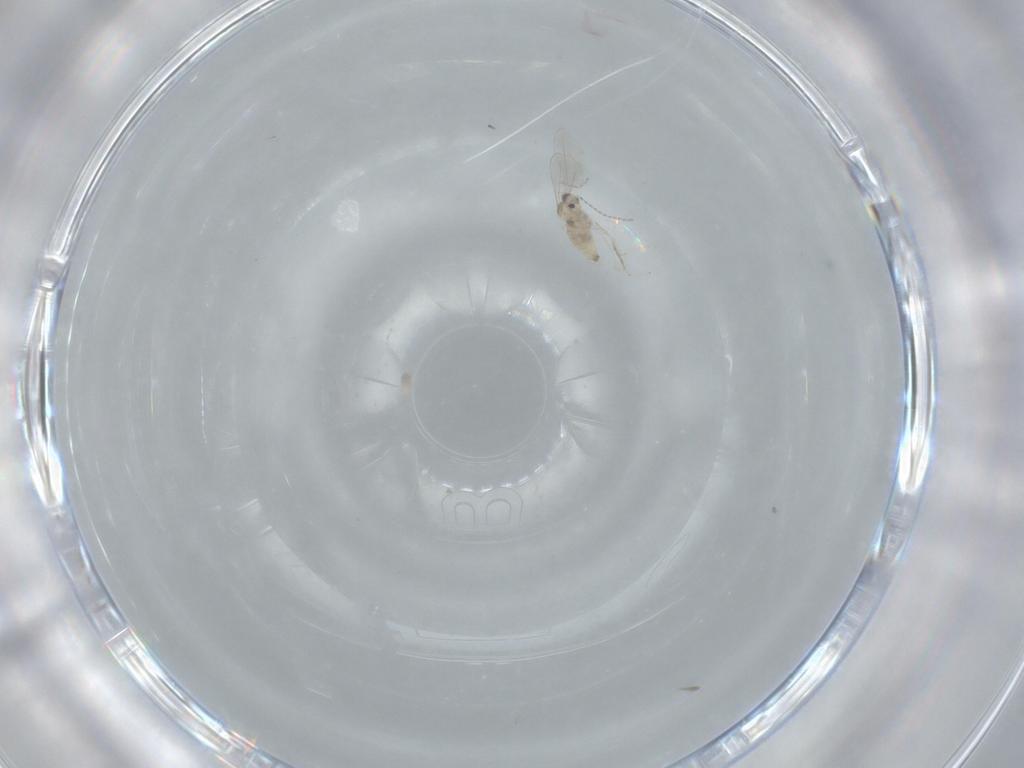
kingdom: Animalia
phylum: Arthropoda
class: Insecta
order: Diptera
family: Cecidomyiidae
